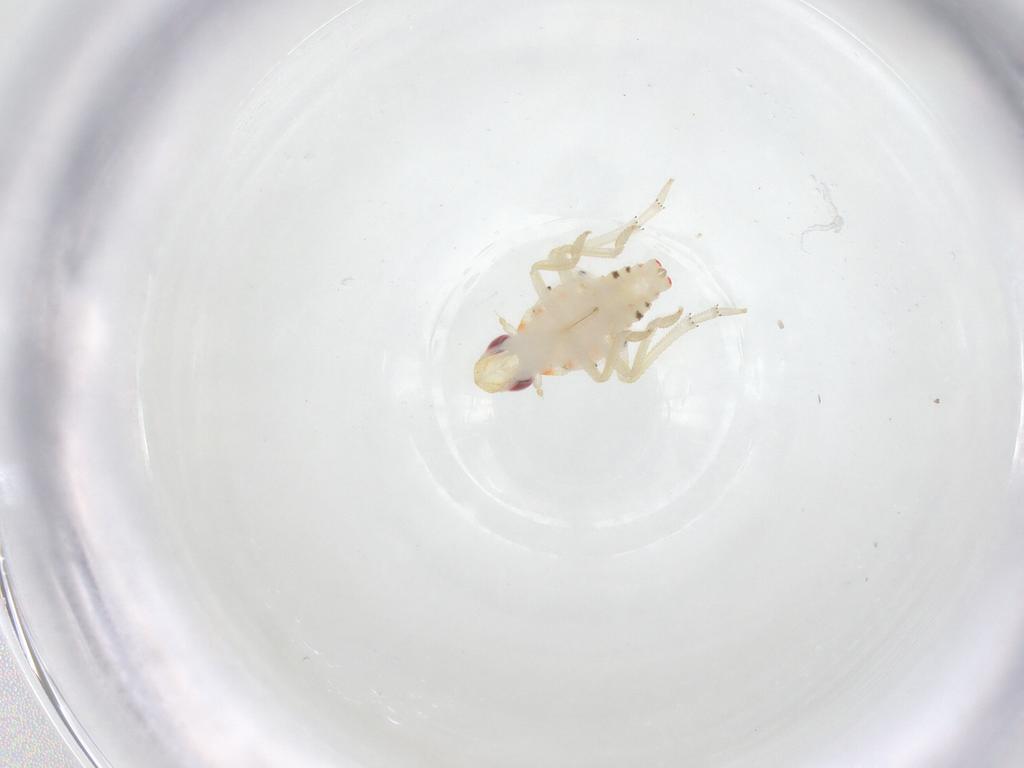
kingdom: Animalia
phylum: Arthropoda
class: Insecta
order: Hemiptera
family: Tropiduchidae
